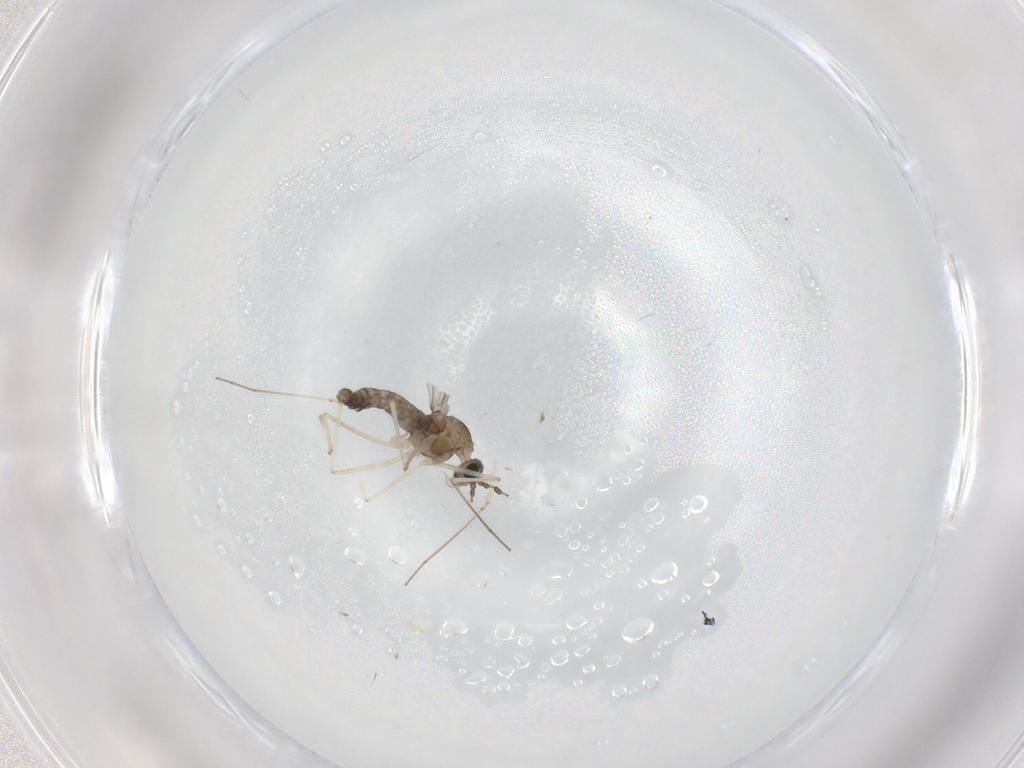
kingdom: Animalia
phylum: Arthropoda
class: Insecta
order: Diptera
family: Cecidomyiidae
